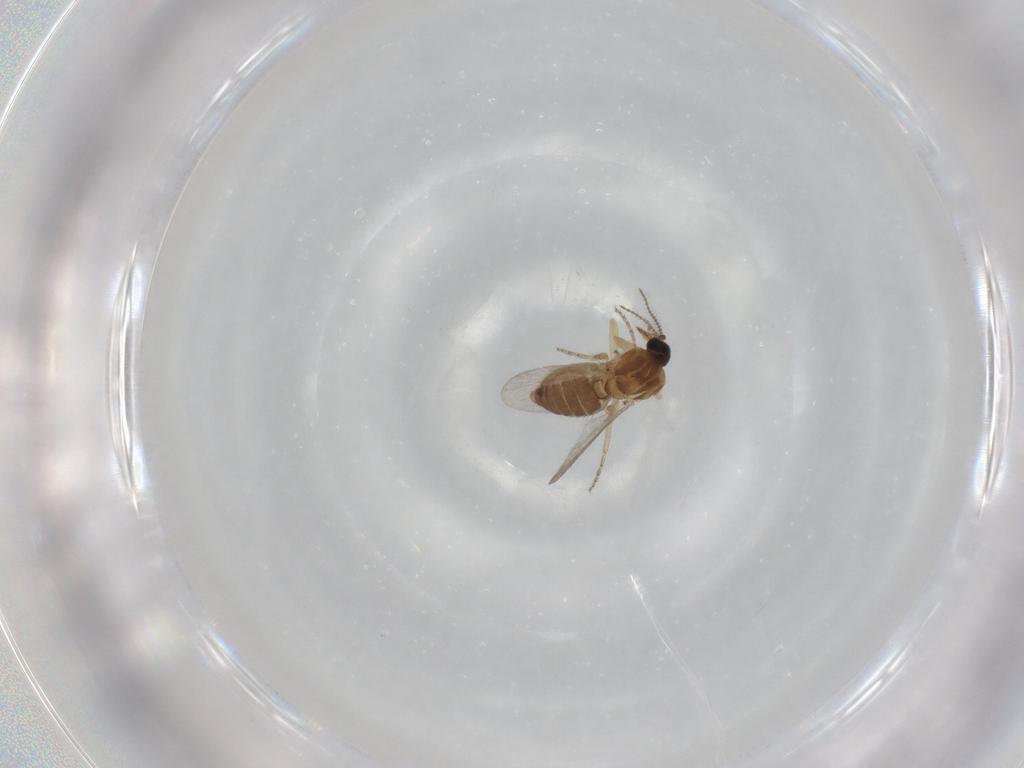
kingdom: Animalia
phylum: Arthropoda
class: Insecta
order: Diptera
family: Ceratopogonidae
